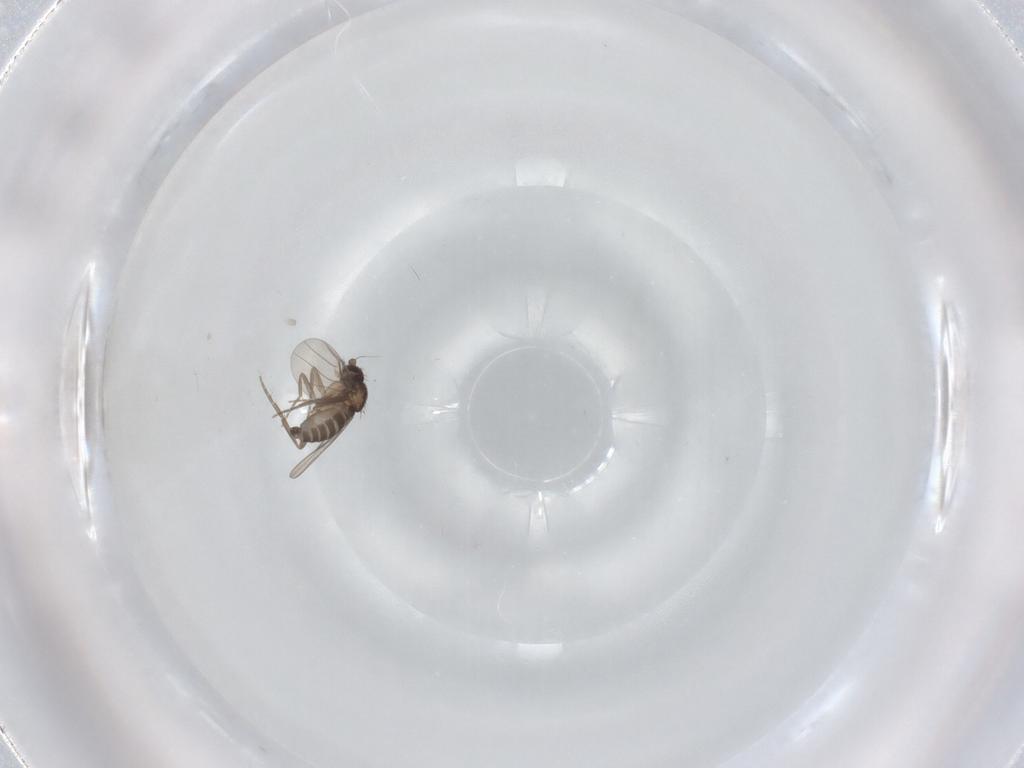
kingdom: Animalia
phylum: Arthropoda
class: Insecta
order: Diptera
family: Phoridae
